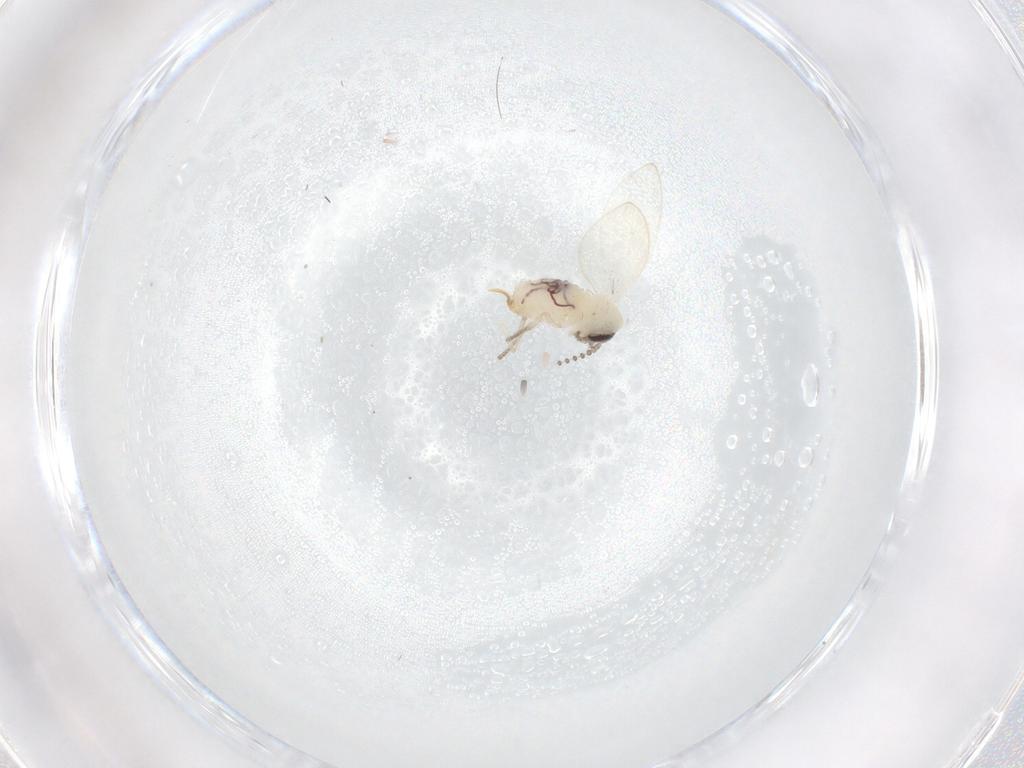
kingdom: Animalia
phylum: Arthropoda
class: Insecta
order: Diptera
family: Psychodidae
